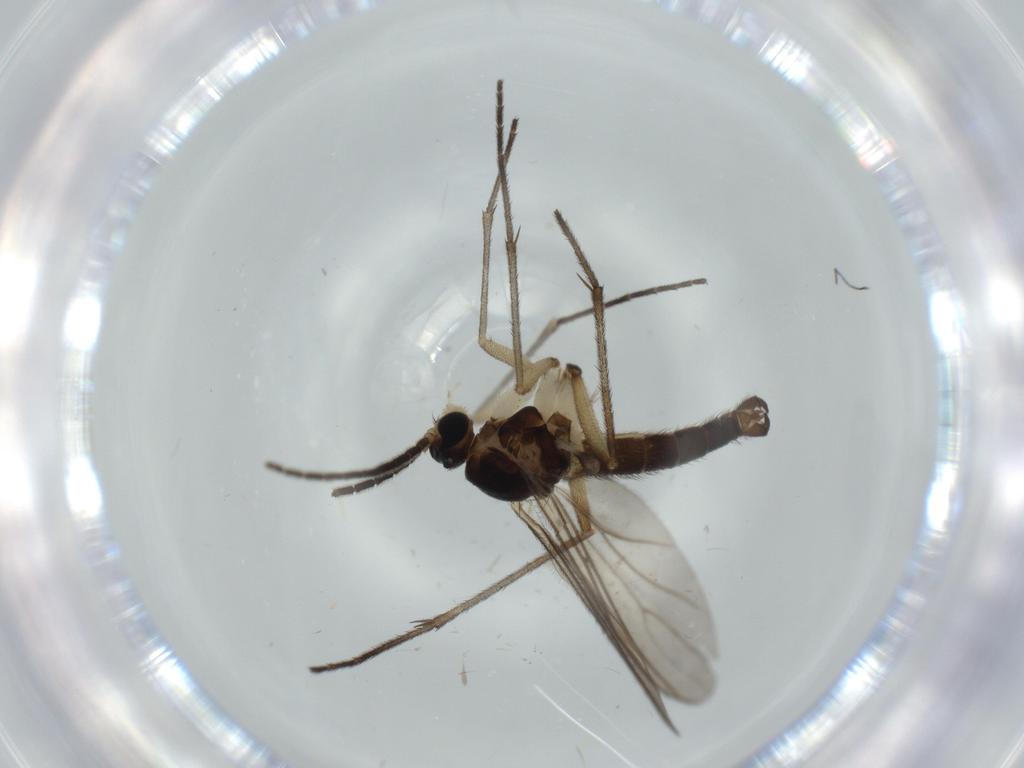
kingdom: Animalia
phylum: Arthropoda
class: Insecta
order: Diptera
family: Sciaridae
